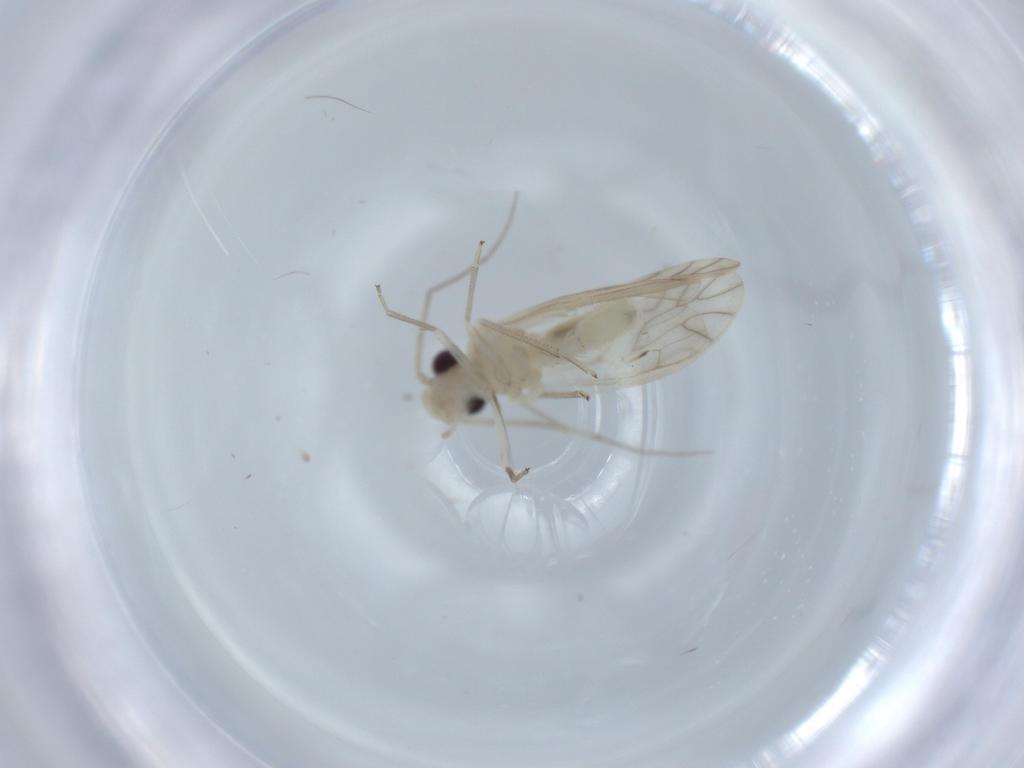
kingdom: Animalia
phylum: Arthropoda
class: Insecta
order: Psocodea
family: Caeciliusidae
